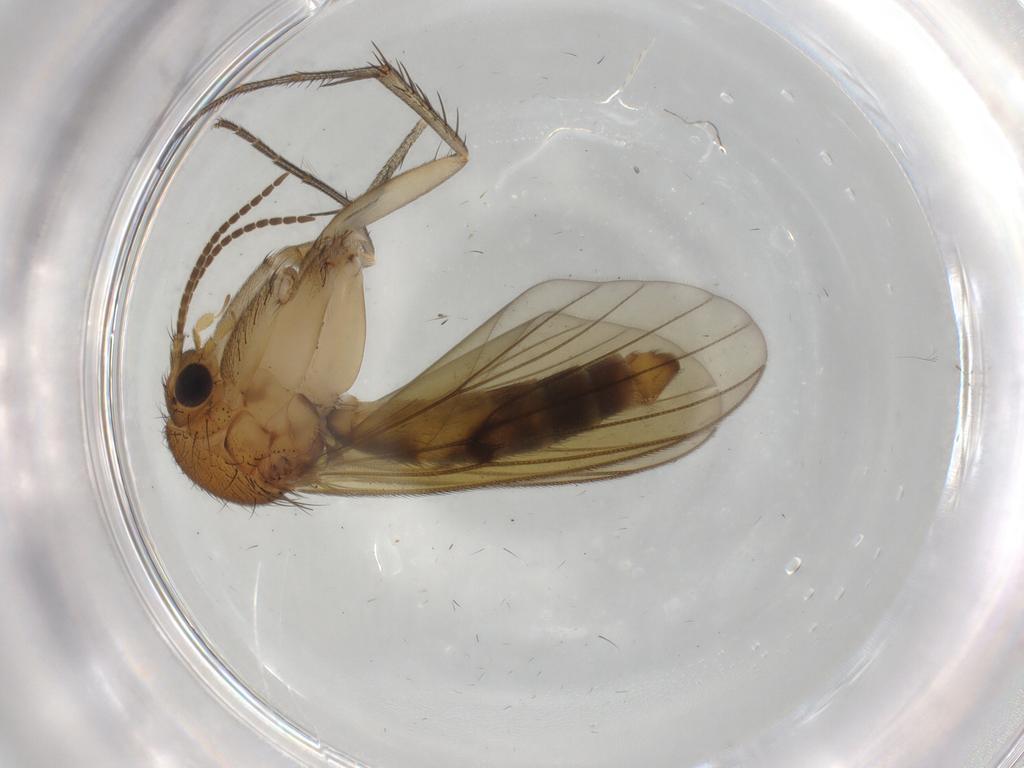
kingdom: Animalia
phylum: Arthropoda
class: Insecta
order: Diptera
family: Mycetophilidae
